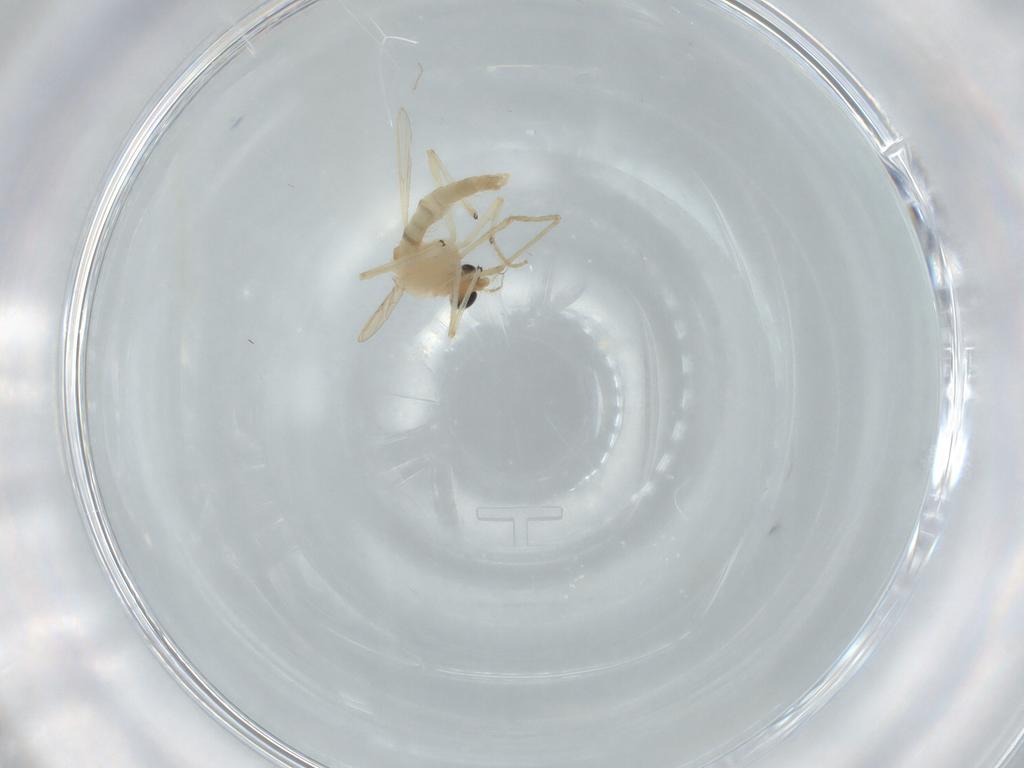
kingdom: Animalia
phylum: Arthropoda
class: Insecta
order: Diptera
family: Chironomidae
